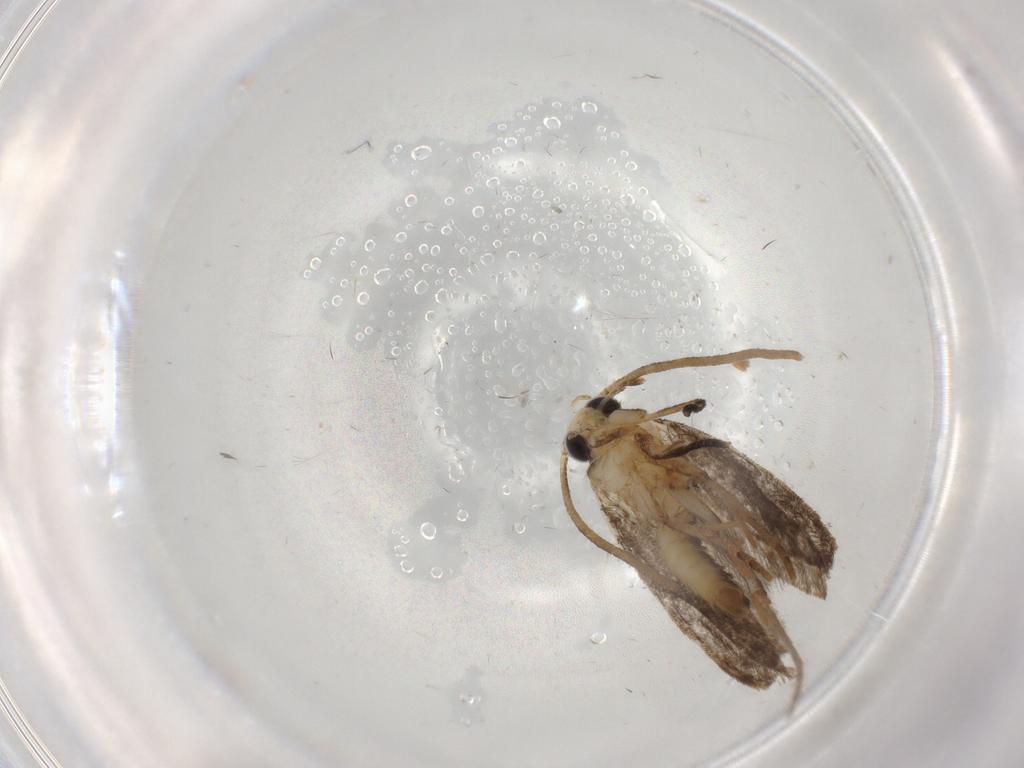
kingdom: Animalia
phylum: Arthropoda
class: Insecta
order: Lepidoptera
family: Tineidae
